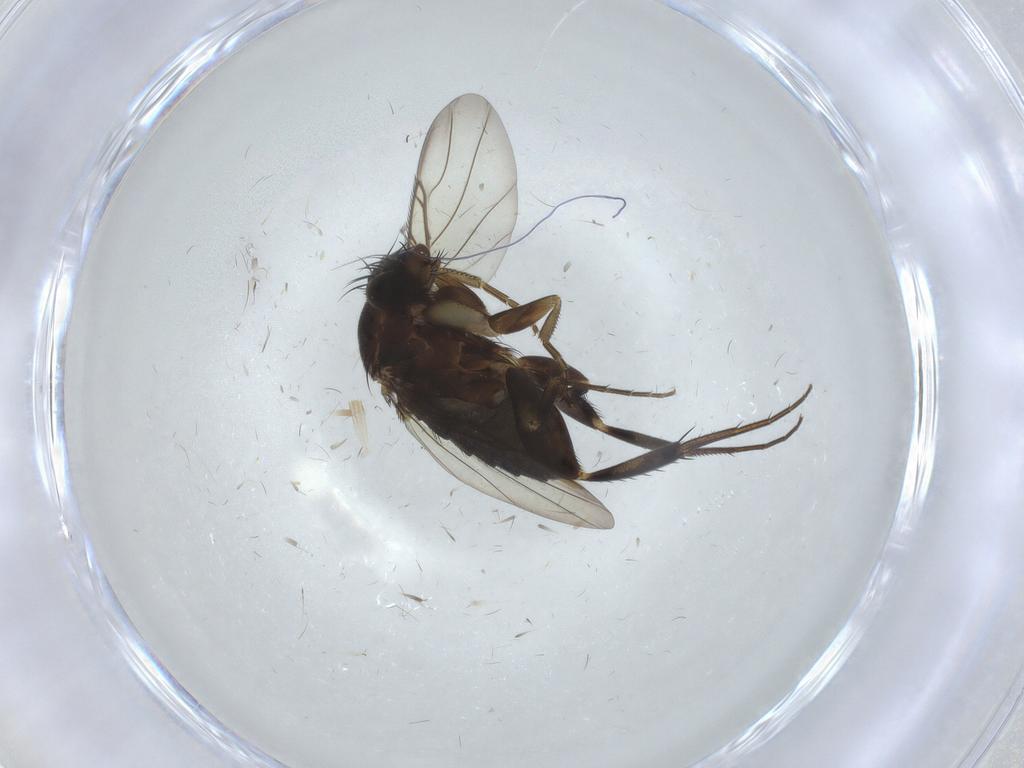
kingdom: Animalia
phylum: Arthropoda
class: Insecta
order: Diptera
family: Phoridae
